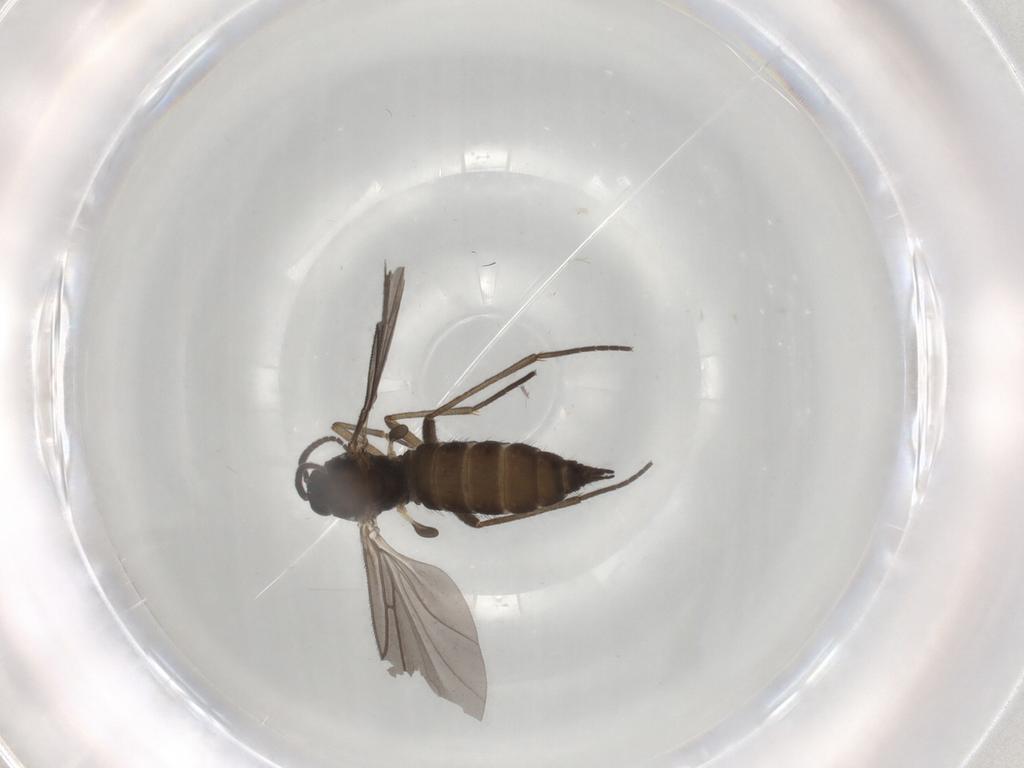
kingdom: Animalia
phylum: Arthropoda
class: Insecta
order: Diptera
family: Sciaridae
